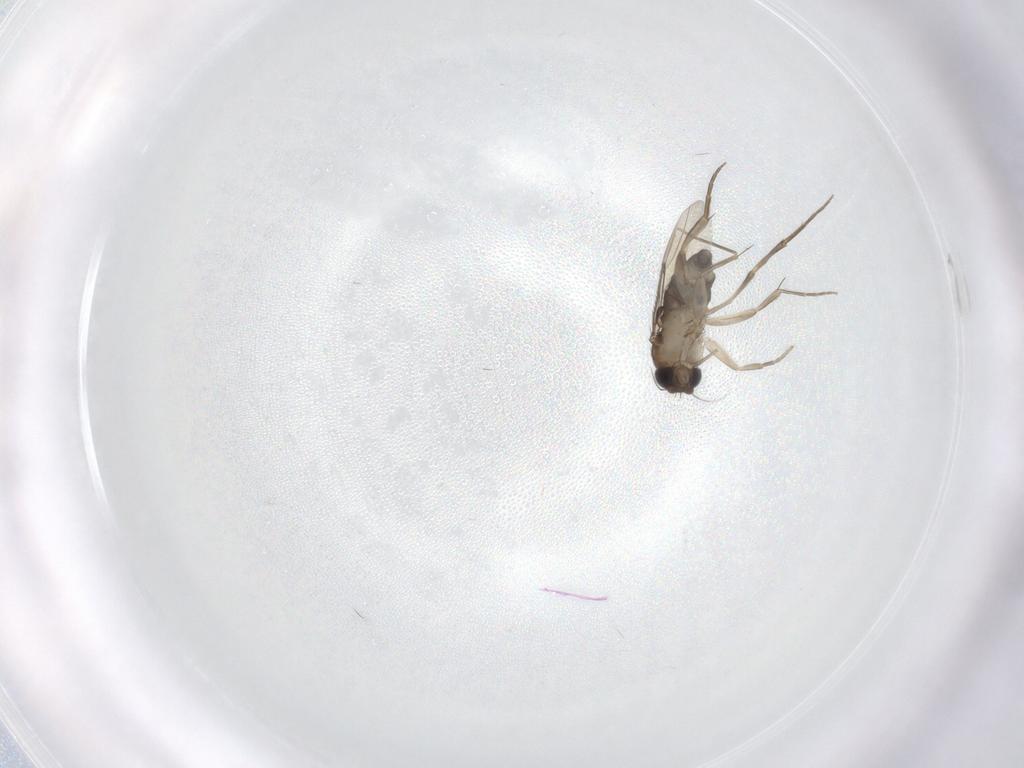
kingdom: Animalia
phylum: Arthropoda
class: Insecta
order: Diptera
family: Phoridae
